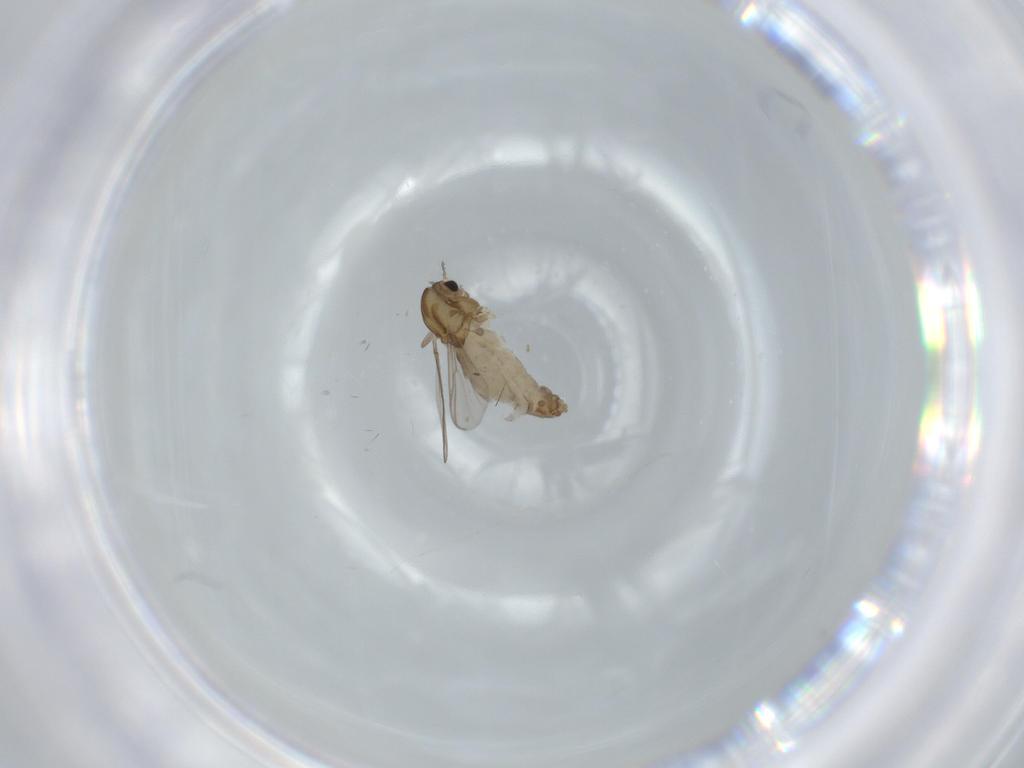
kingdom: Animalia
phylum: Arthropoda
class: Insecta
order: Diptera
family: Chironomidae
